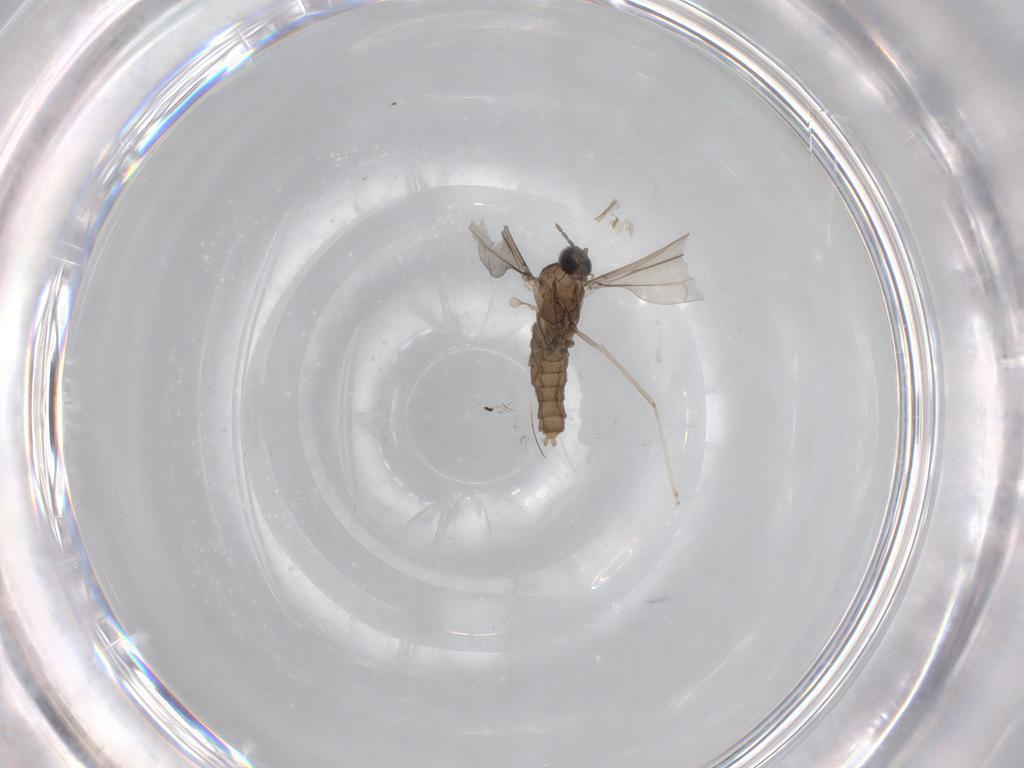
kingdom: Animalia
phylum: Arthropoda
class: Insecta
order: Diptera
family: Cecidomyiidae
